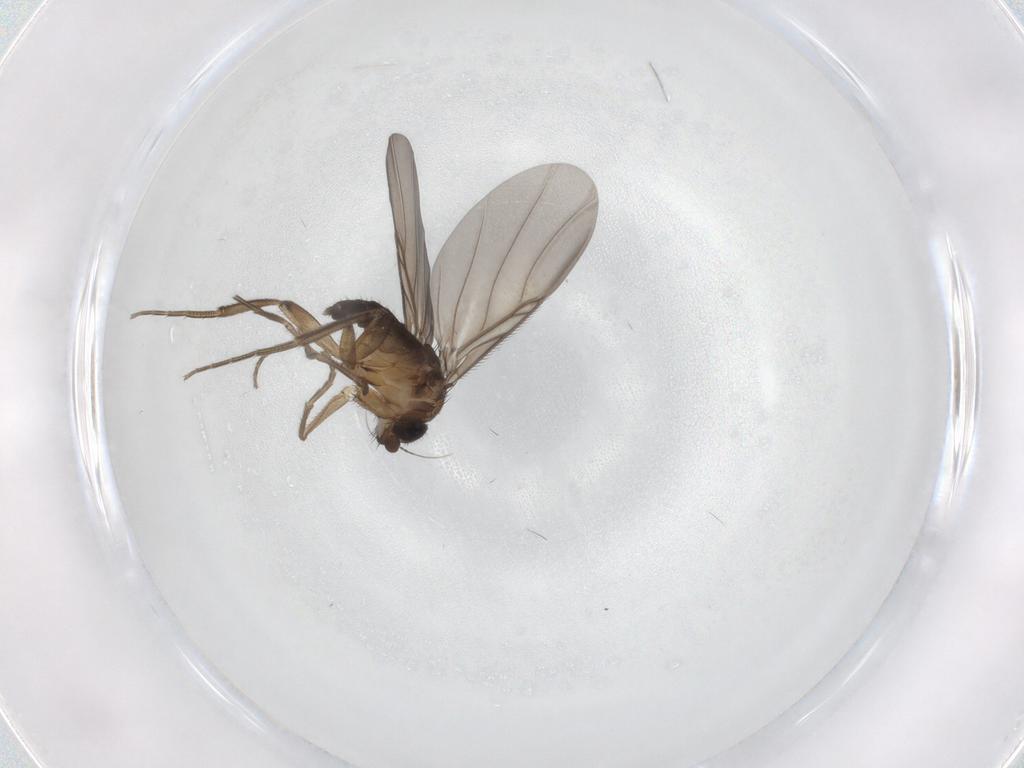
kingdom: Animalia
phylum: Arthropoda
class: Insecta
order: Diptera
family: Phoridae
